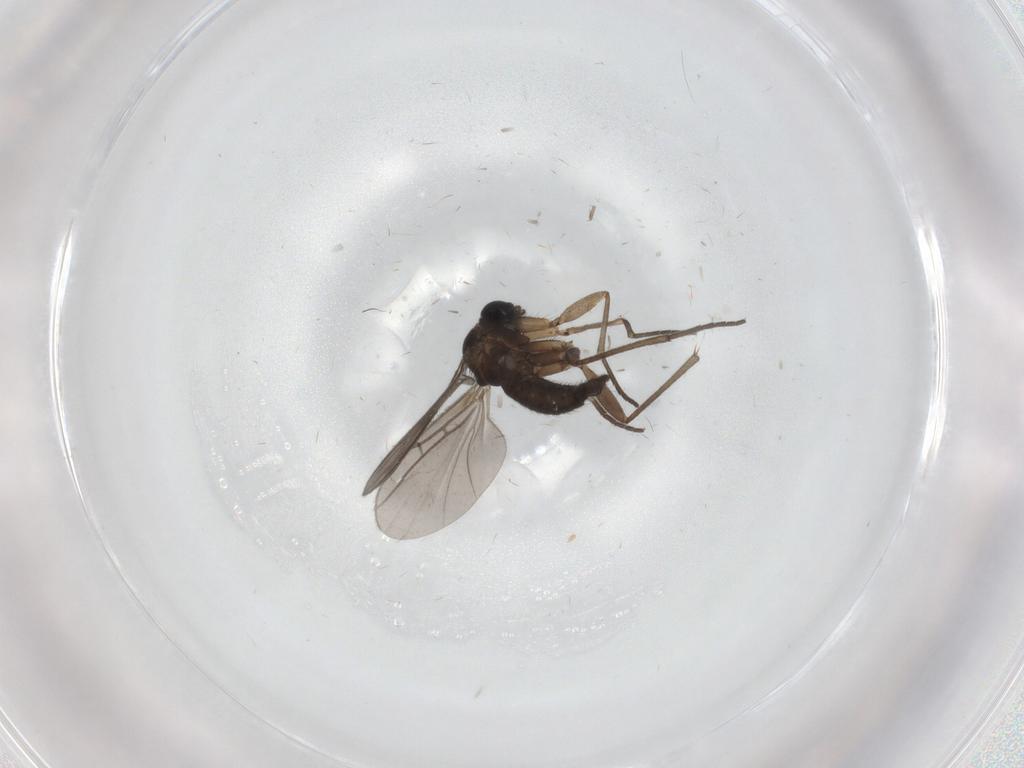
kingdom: Animalia
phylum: Arthropoda
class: Insecta
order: Diptera
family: Sciaridae
